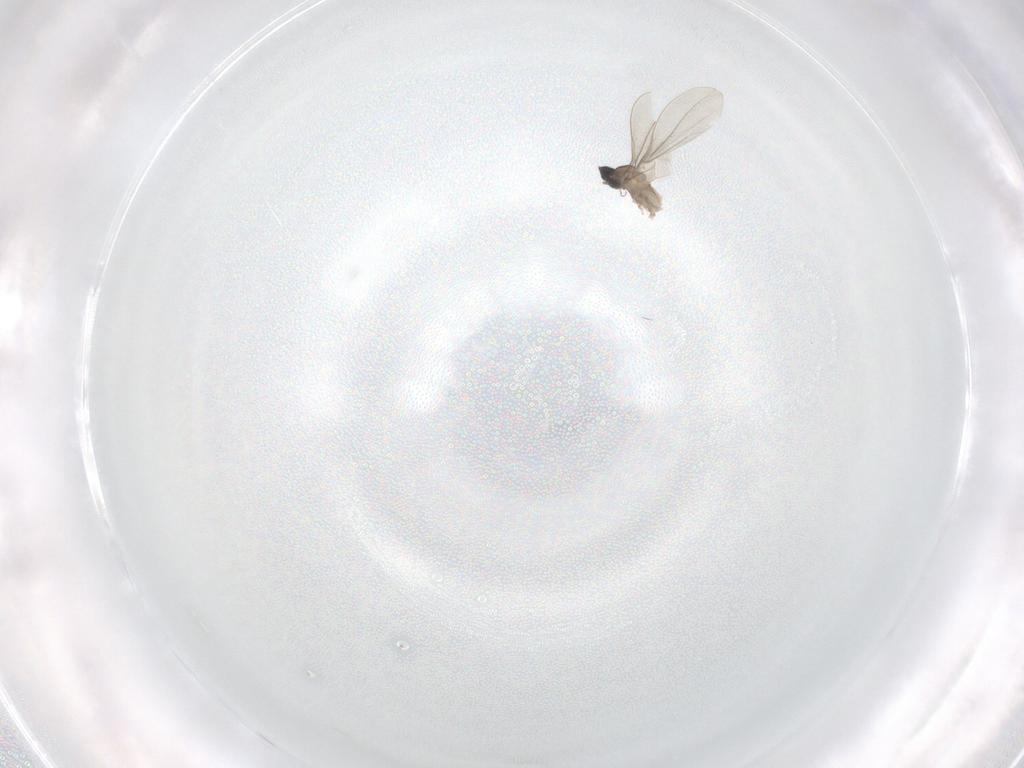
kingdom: Animalia
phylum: Arthropoda
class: Insecta
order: Diptera
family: Cecidomyiidae
